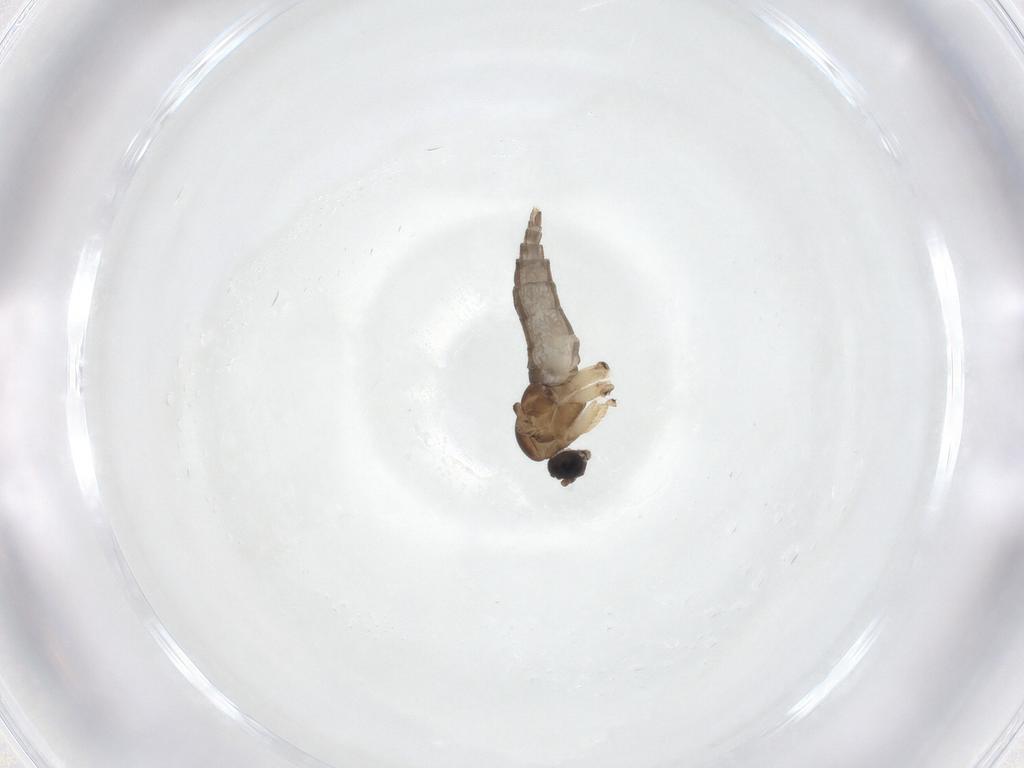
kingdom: Animalia
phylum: Arthropoda
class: Insecta
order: Diptera
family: Sciaridae
